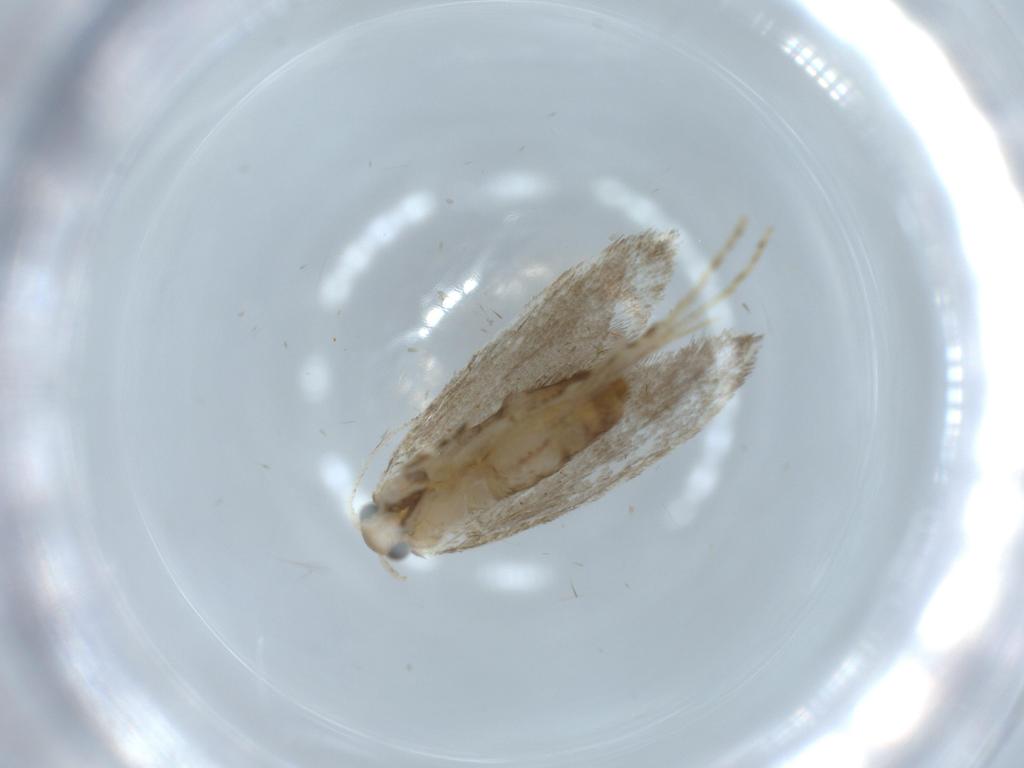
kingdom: Animalia
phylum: Arthropoda
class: Insecta
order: Lepidoptera
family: Tineidae
